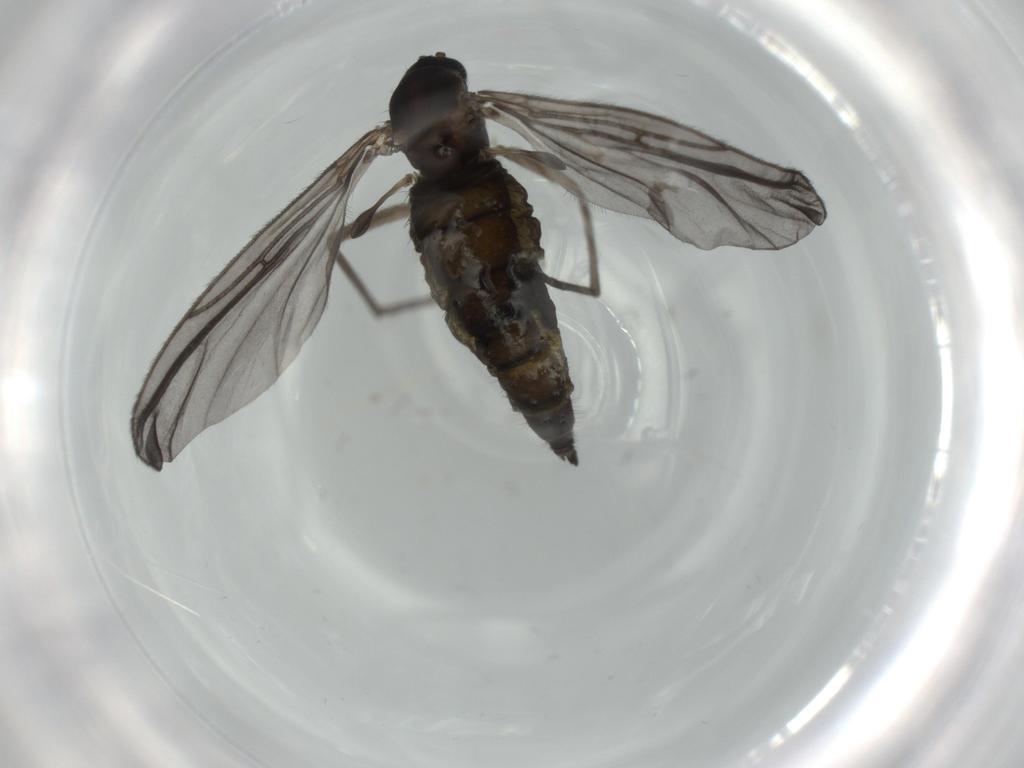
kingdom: Animalia
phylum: Arthropoda
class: Insecta
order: Diptera
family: Sciaridae
